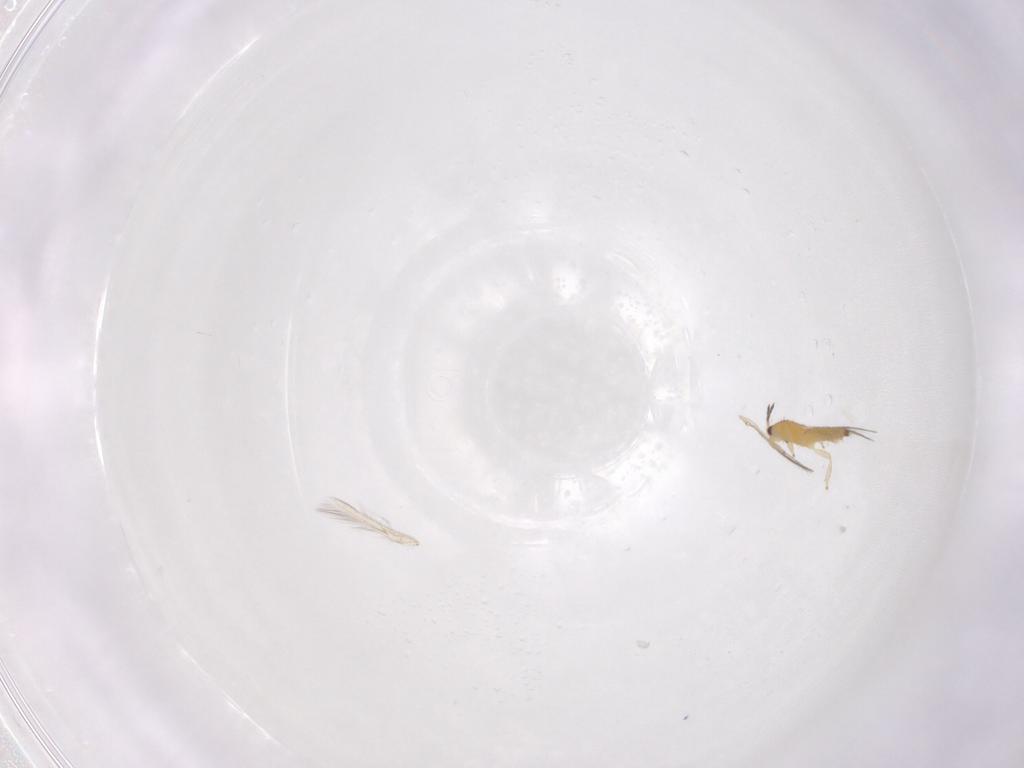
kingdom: Animalia
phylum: Arthropoda
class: Insecta
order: Thysanoptera
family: Thripidae
